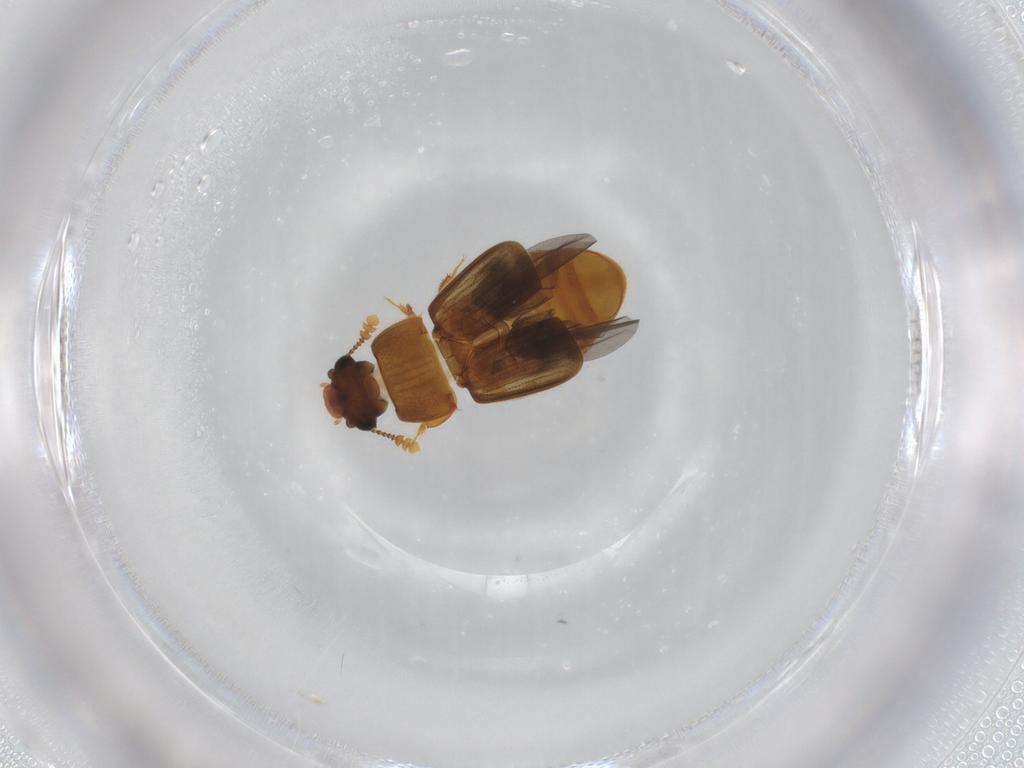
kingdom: Animalia
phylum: Arthropoda
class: Insecta
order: Coleoptera
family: Nitidulidae
